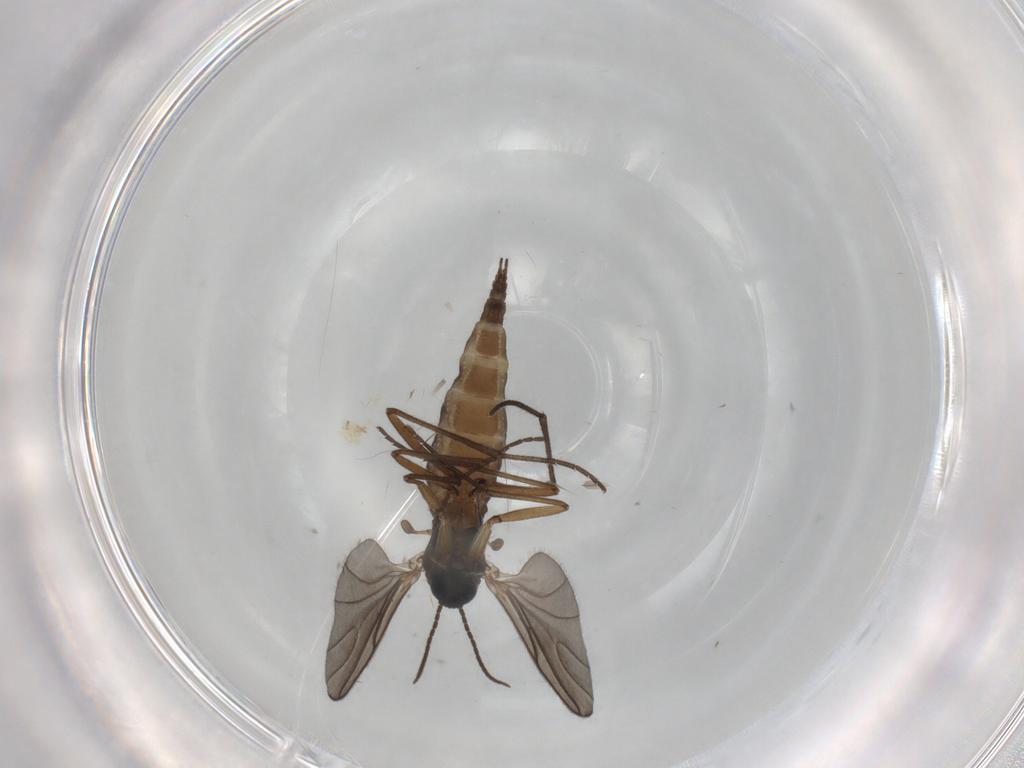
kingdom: Animalia
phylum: Arthropoda
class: Insecta
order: Diptera
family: Sciaridae
